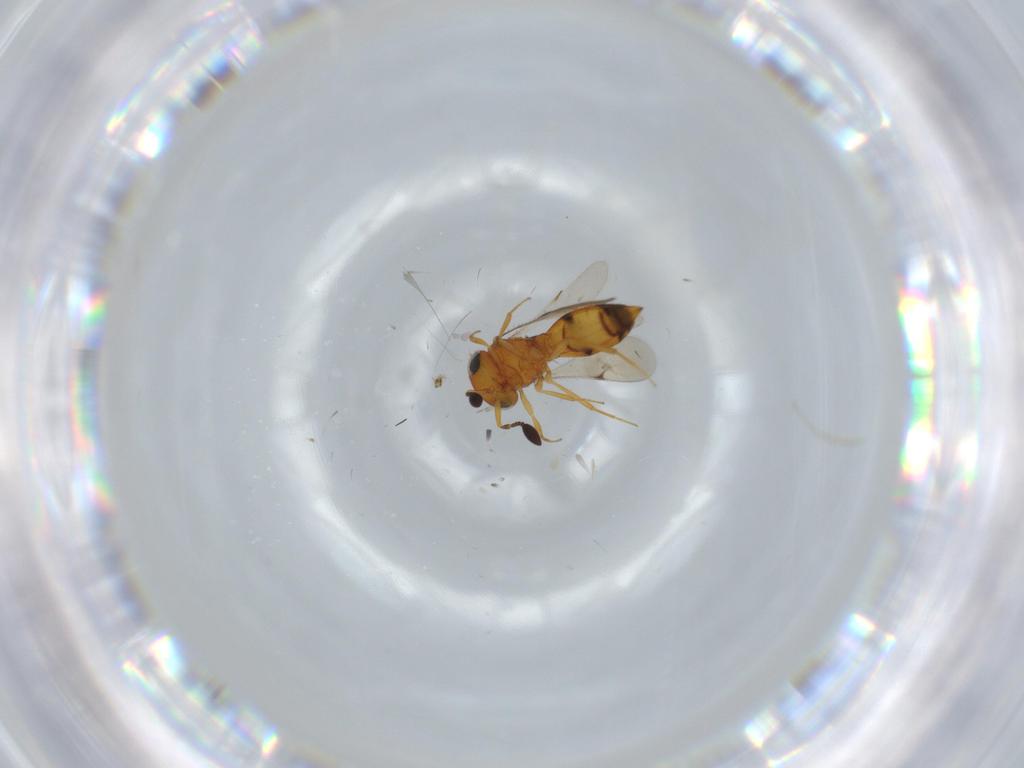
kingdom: Animalia
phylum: Arthropoda
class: Insecta
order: Hymenoptera
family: Scelionidae
